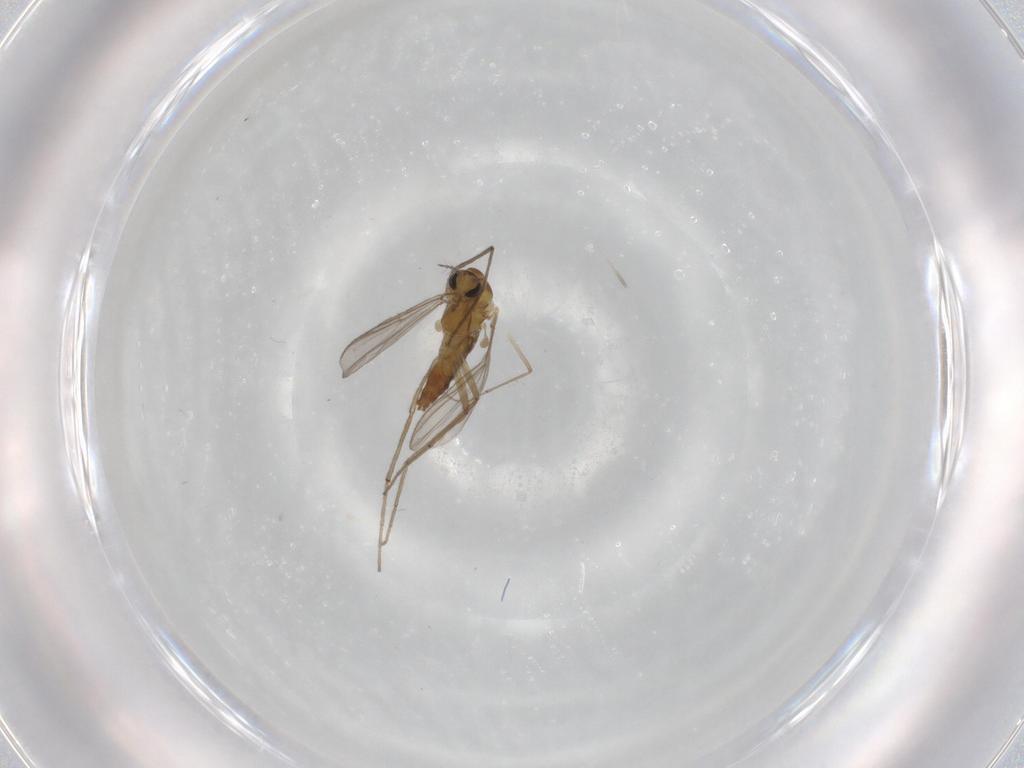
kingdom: Animalia
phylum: Arthropoda
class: Insecta
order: Diptera
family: Chironomidae
